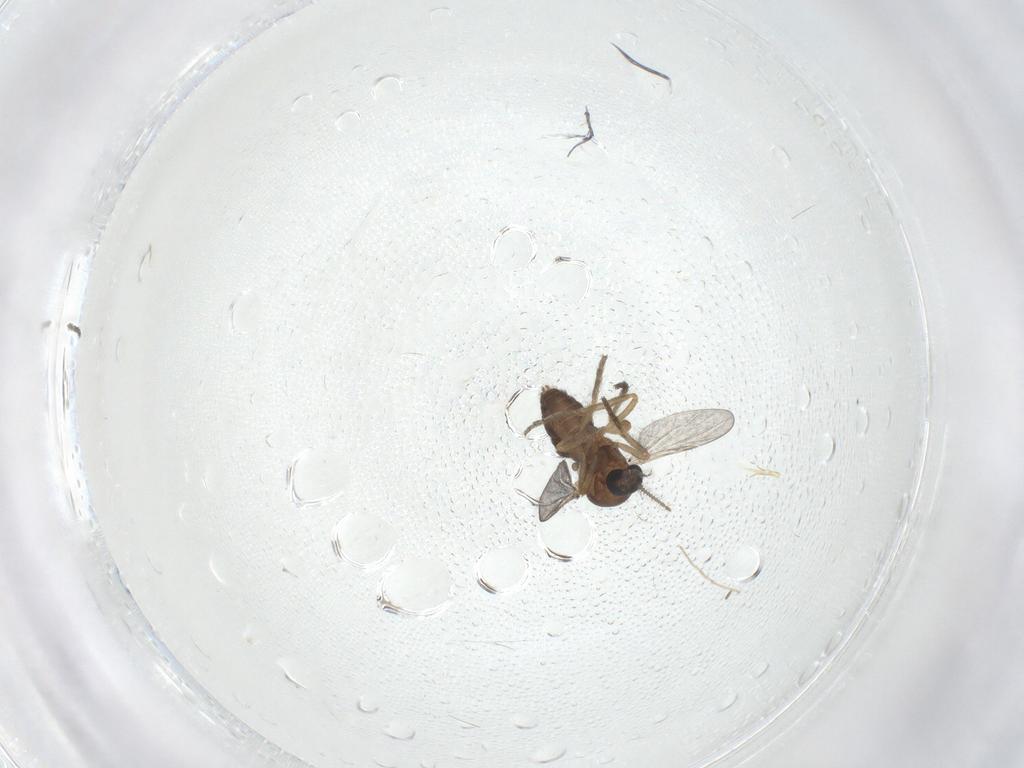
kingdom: Animalia
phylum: Arthropoda
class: Insecta
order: Diptera
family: Chironomidae
